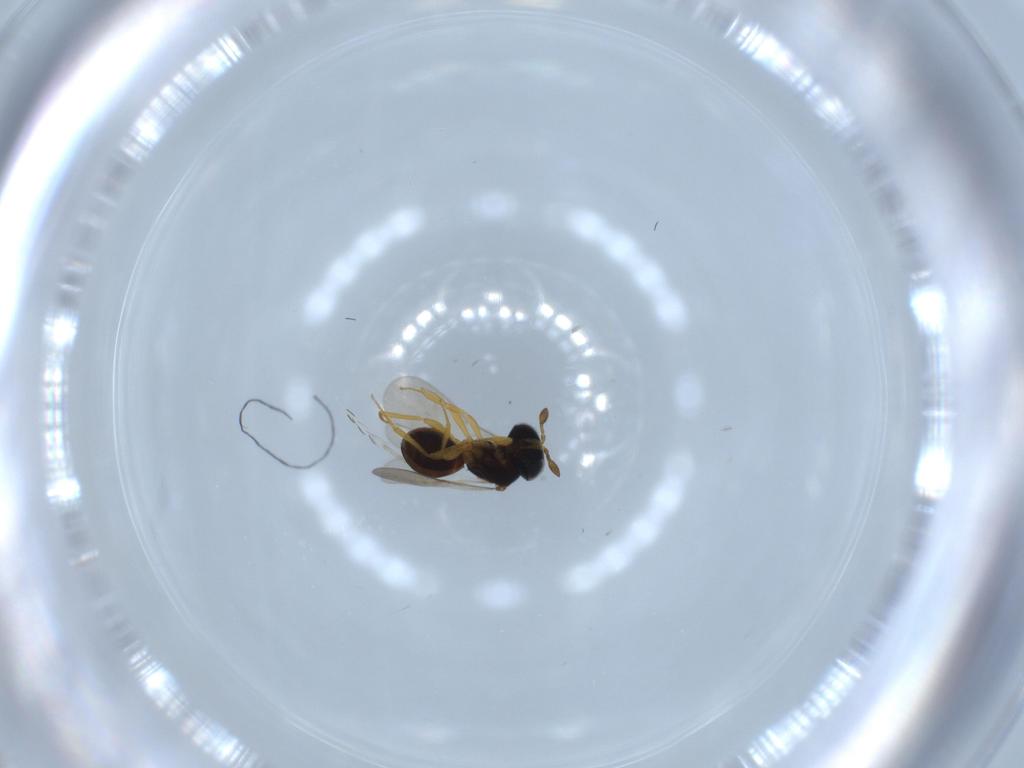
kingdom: Animalia
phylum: Arthropoda
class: Insecta
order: Hymenoptera
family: Scelionidae
